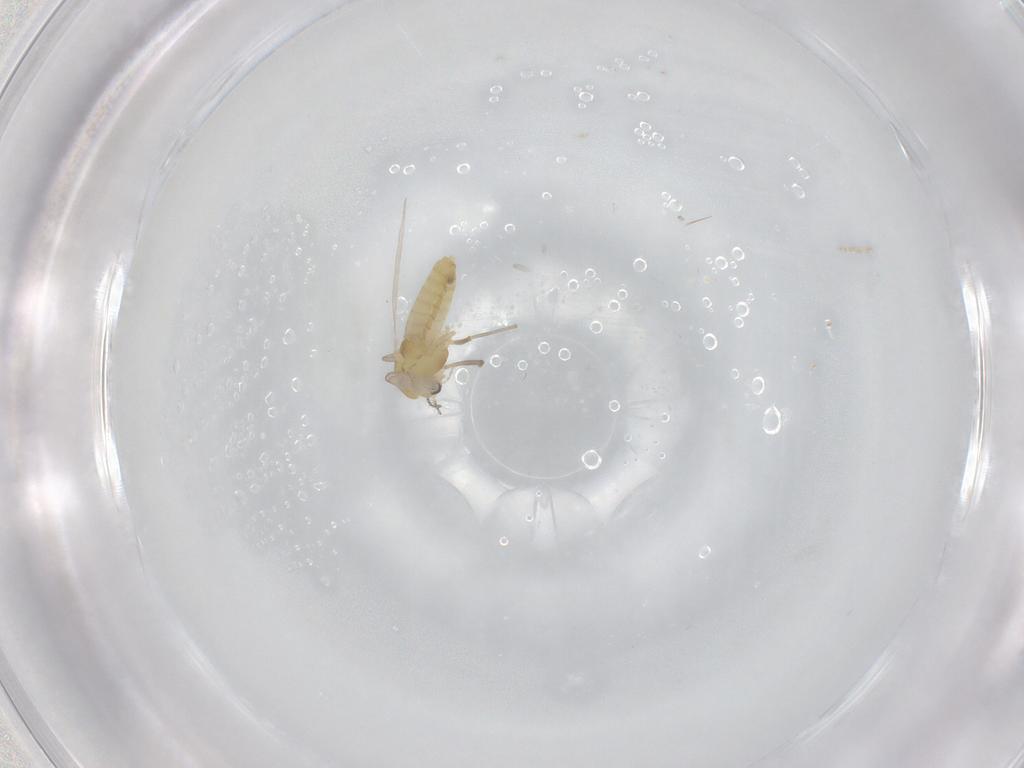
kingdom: Animalia
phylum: Arthropoda
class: Insecta
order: Diptera
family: Chironomidae
